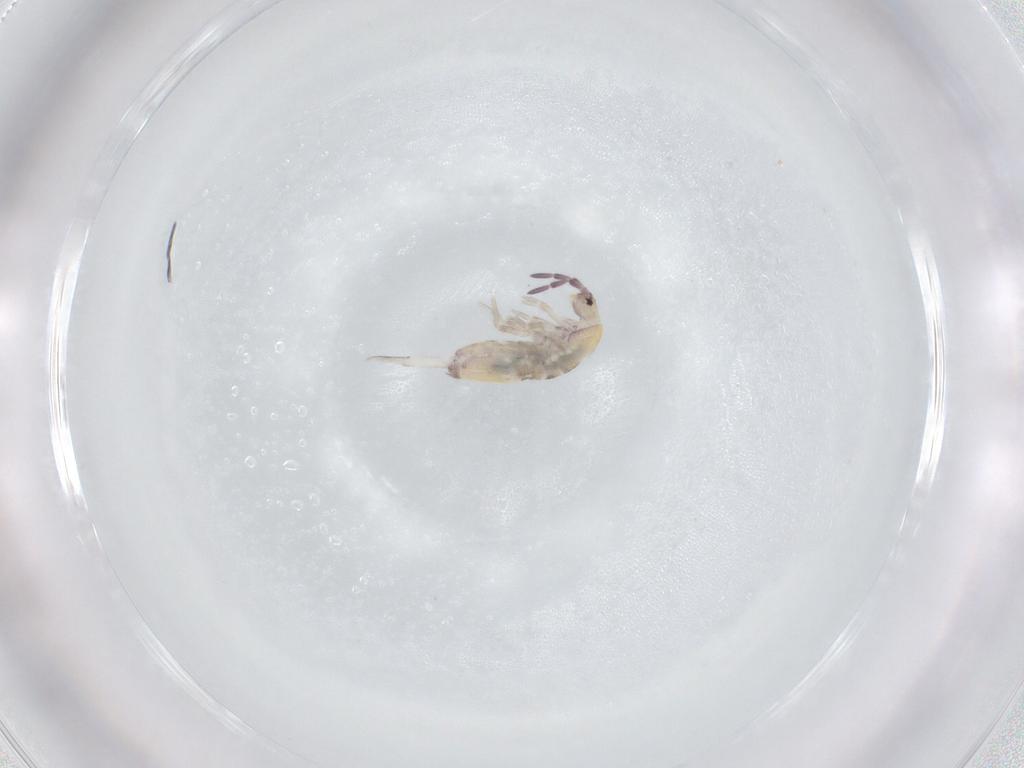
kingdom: Animalia
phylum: Arthropoda
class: Collembola
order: Entomobryomorpha
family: Entomobryidae
